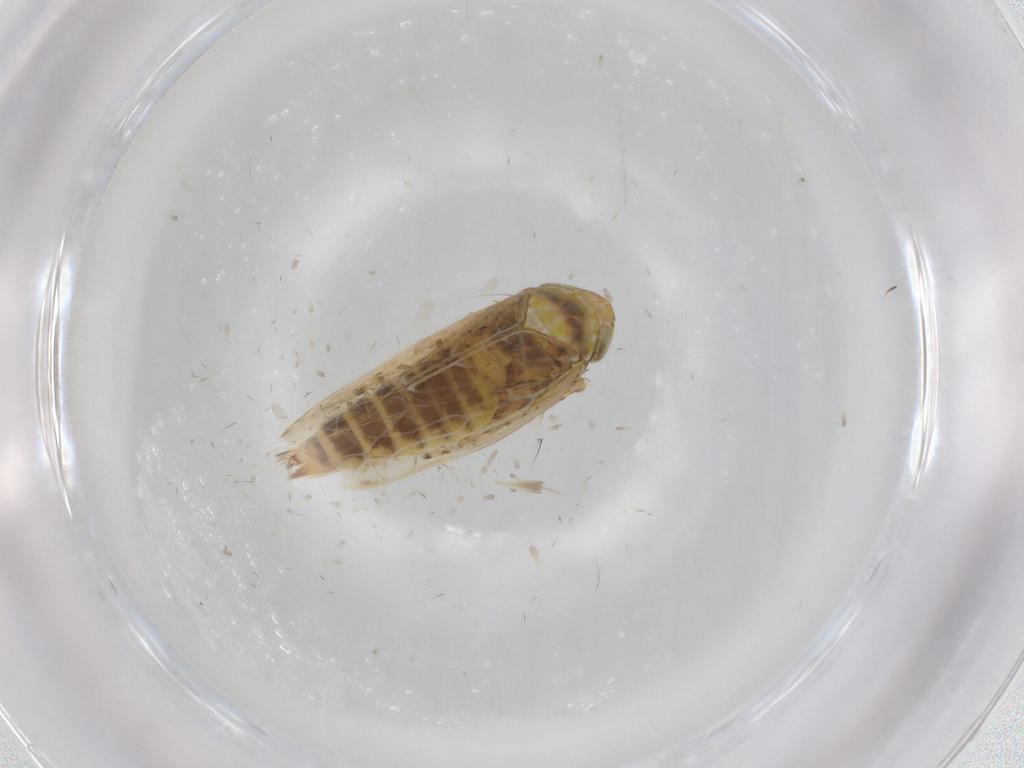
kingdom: Animalia
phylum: Arthropoda
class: Insecta
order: Hemiptera
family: Cicadellidae
